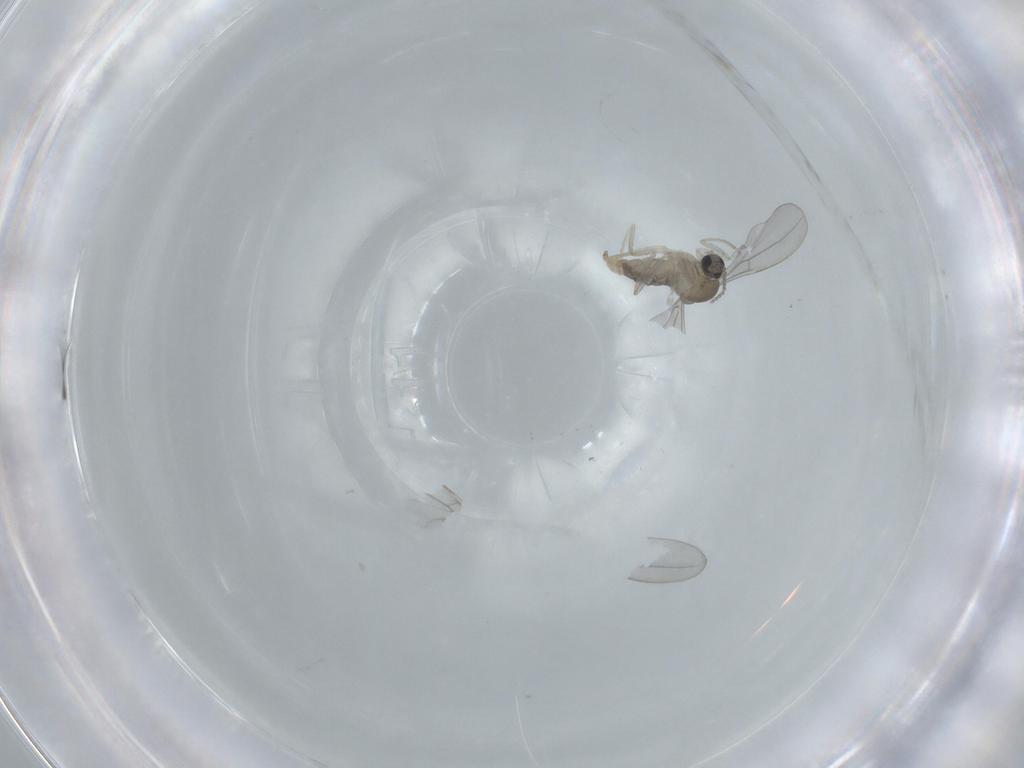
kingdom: Animalia
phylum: Arthropoda
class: Insecta
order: Diptera
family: Cecidomyiidae
